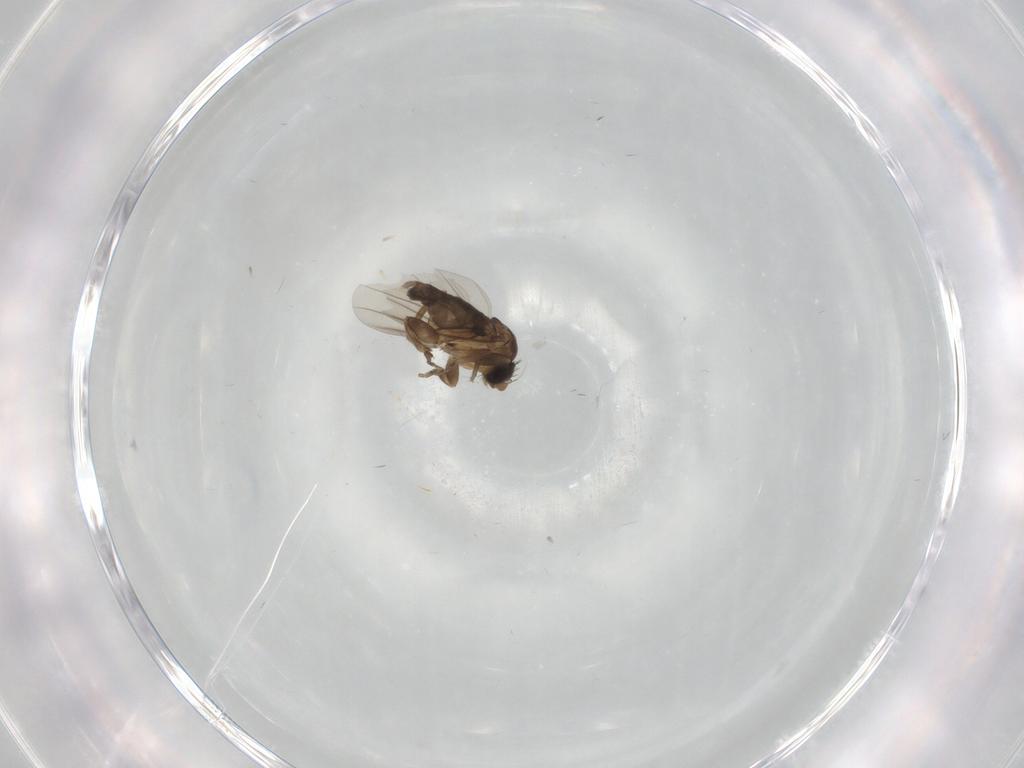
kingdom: Animalia
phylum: Arthropoda
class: Insecta
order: Diptera
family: Phoridae
